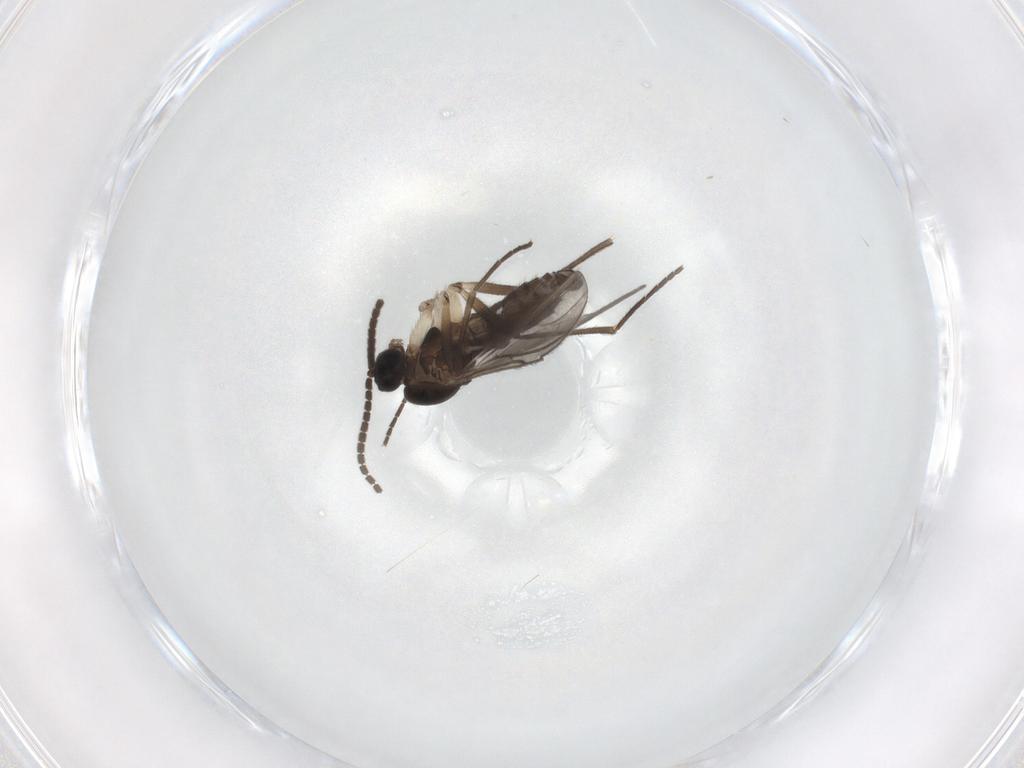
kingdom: Animalia
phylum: Arthropoda
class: Insecta
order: Diptera
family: Sciaridae
